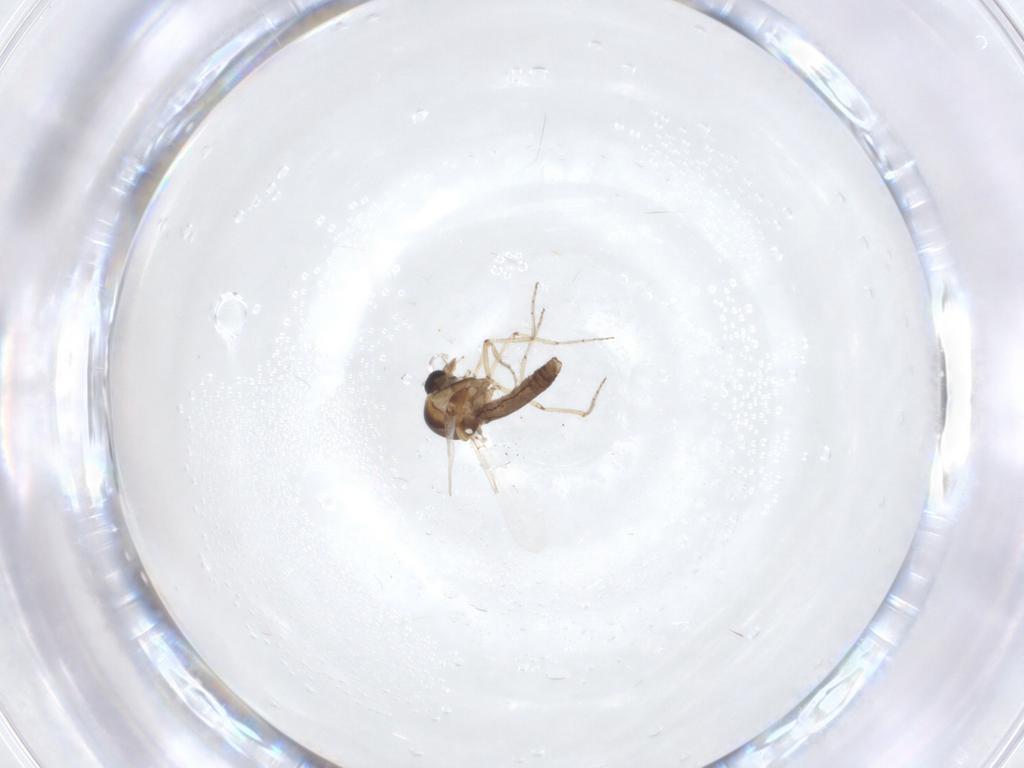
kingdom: Animalia
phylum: Arthropoda
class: Insecta
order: Diptera
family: Ceratopogonidae
